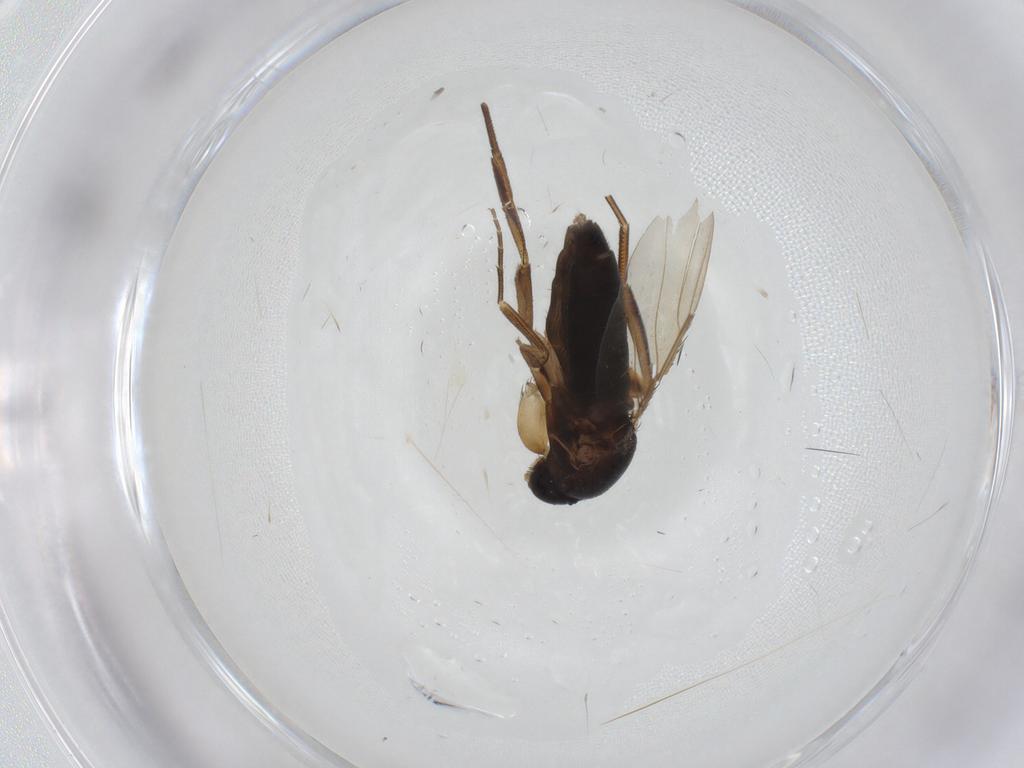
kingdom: Animalia
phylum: Arthropoda
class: Insecta
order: Diptera
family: Phoridae
